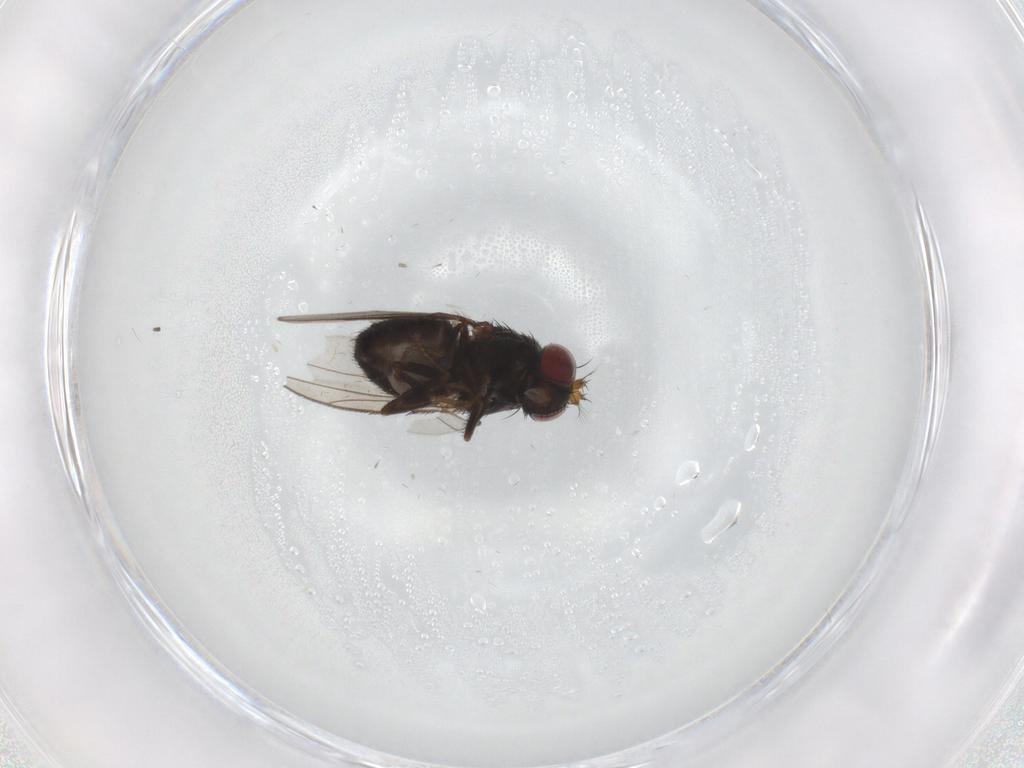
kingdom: Animalia
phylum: Arthropoda
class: Insecta
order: Diptera
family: Ephydridae
